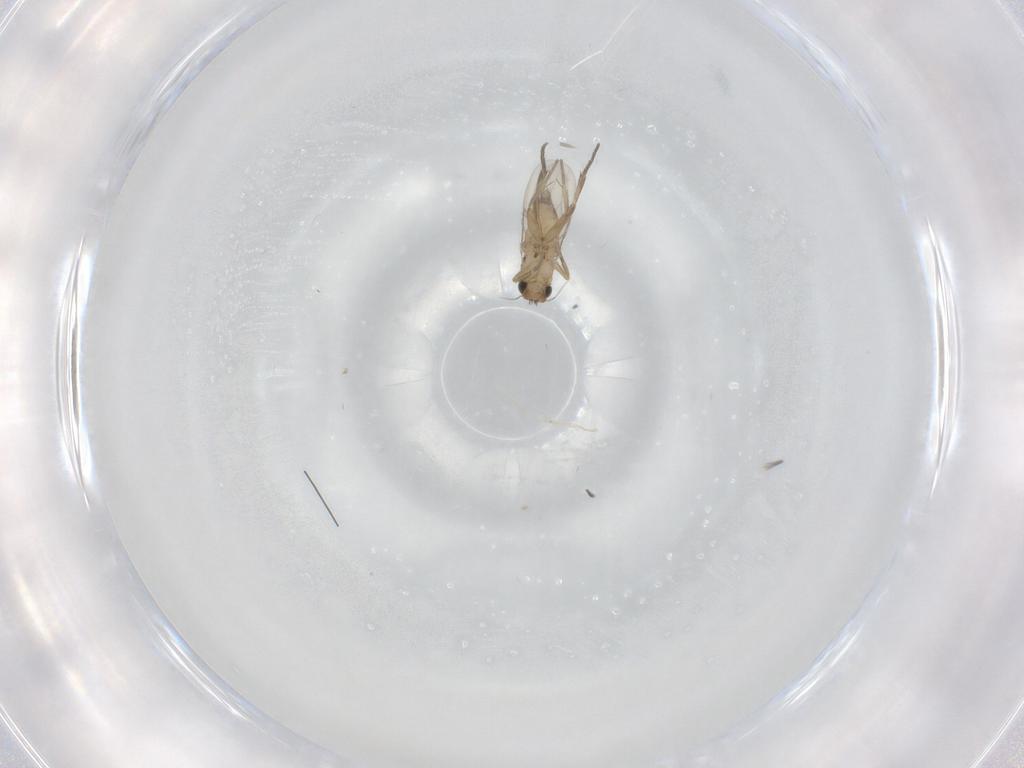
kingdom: Animalia
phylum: Arthropoda
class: Insecta
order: Diptera
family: Phoridae
